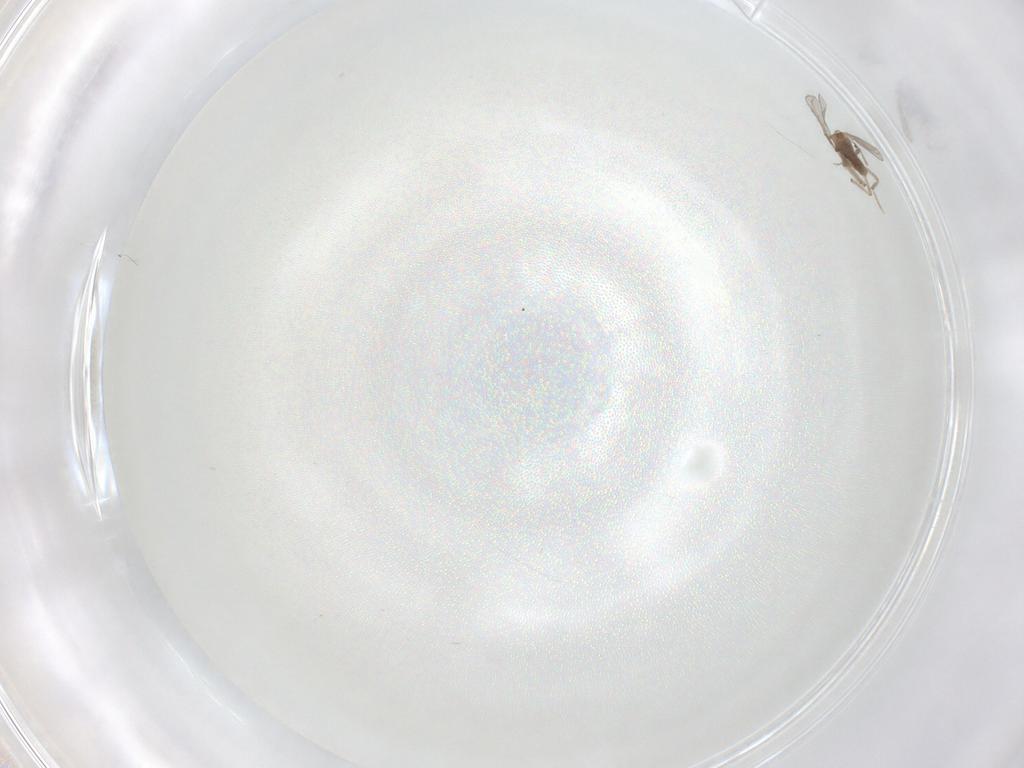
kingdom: Animalia
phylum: Arthropoda
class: Insecta
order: Diptera
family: Chironomidae
